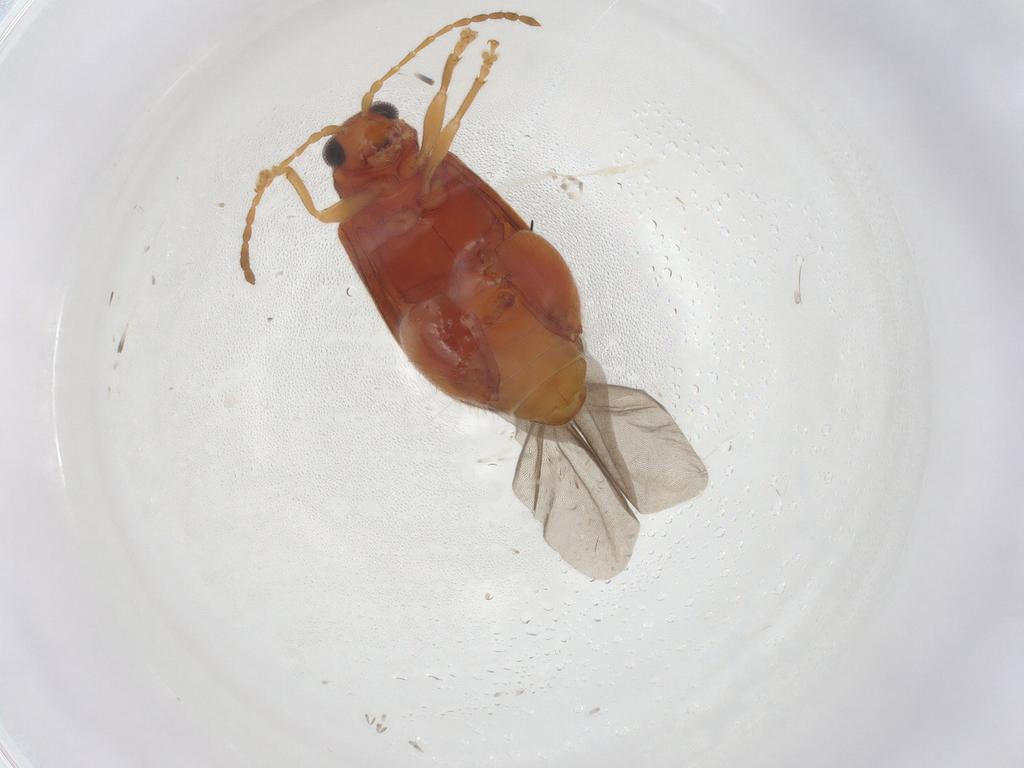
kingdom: Animalia
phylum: Arthropoda
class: Insecta
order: Coleoptera
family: Chrysomelidae
